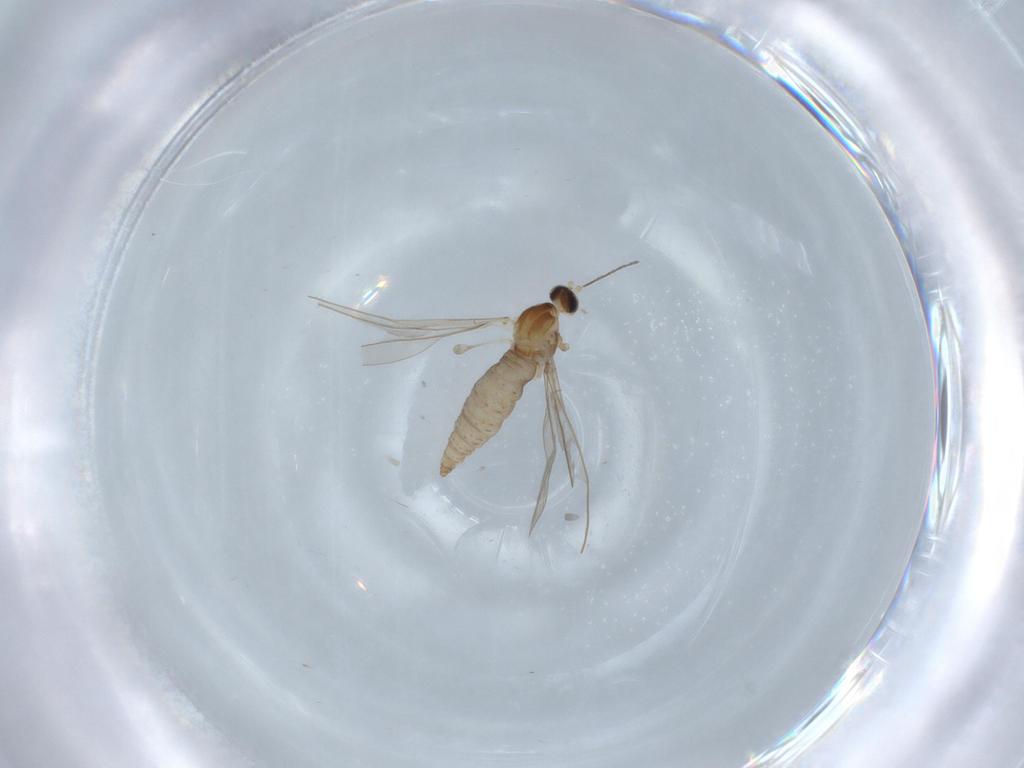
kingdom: Animalia
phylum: Arthropoda
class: Insecta
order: Diptera
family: Cecidomyiidae
